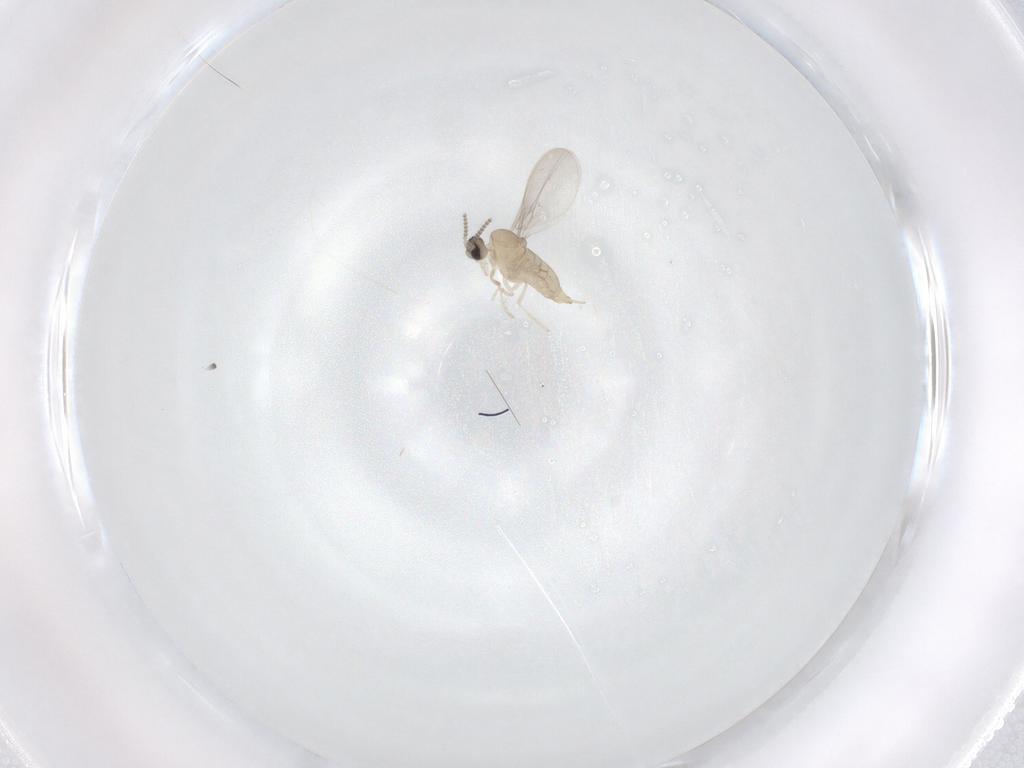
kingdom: Animalia
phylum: Arthropoda
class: Insecta
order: Diptera
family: Cecidomyiidae
